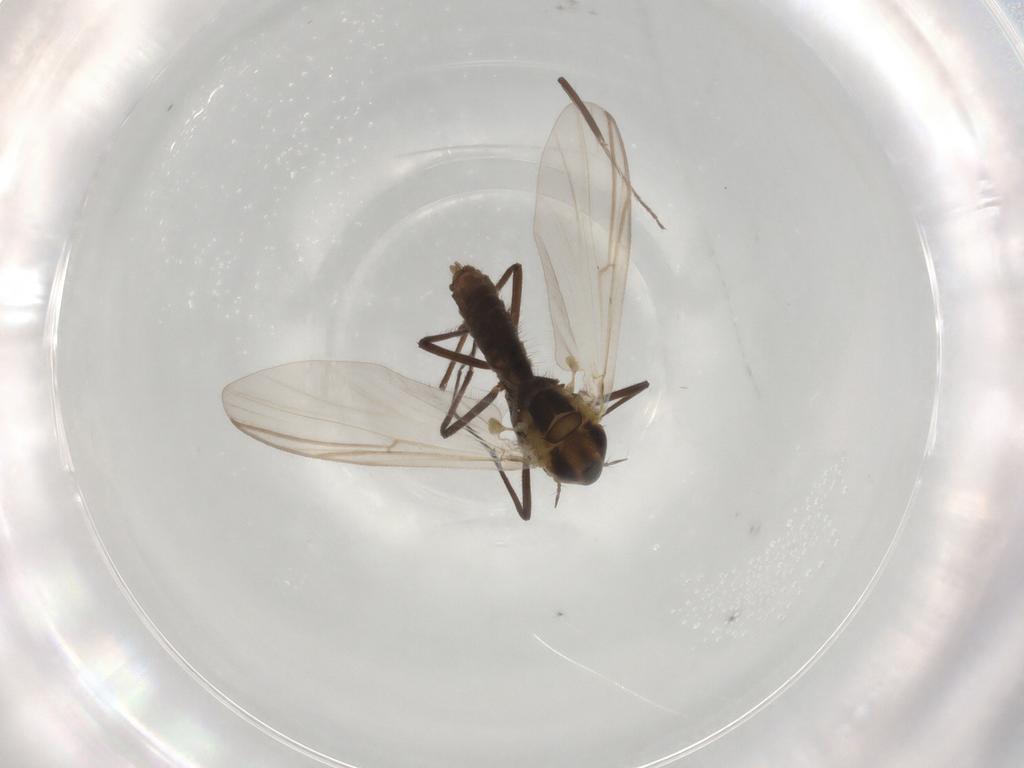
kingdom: Animalia
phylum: Arthropoda
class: Insecta
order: Diptera
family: Chironomidae
